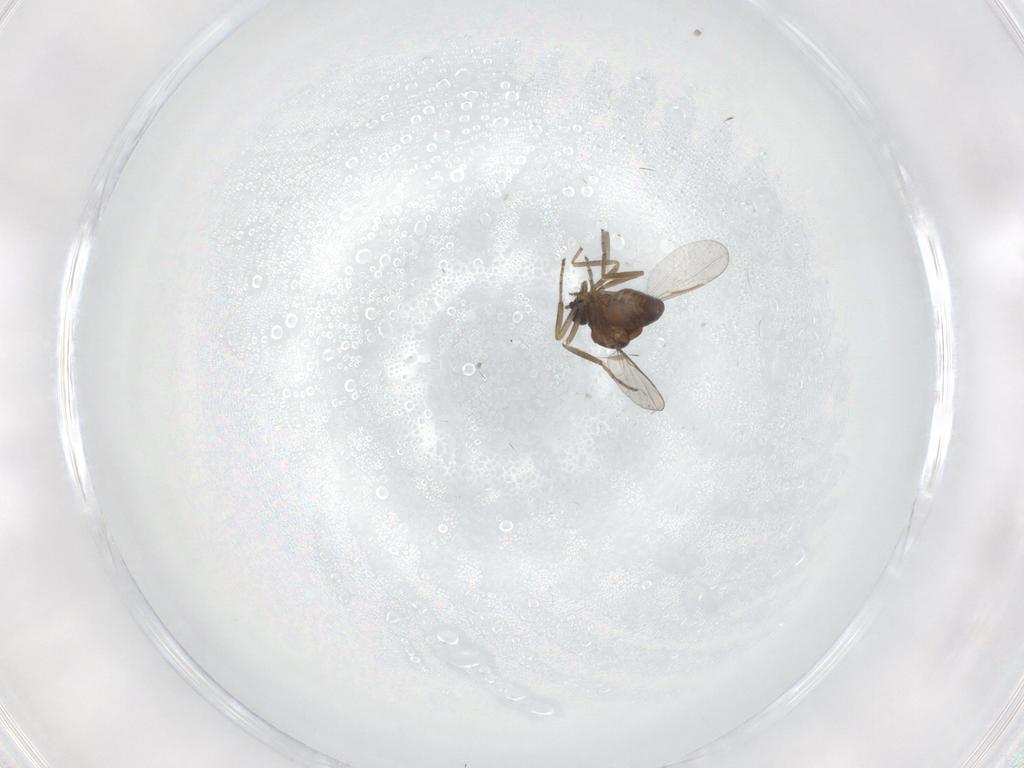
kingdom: Animalia
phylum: Arthropoda
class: Insecta
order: Diptera
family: Chironomidae
